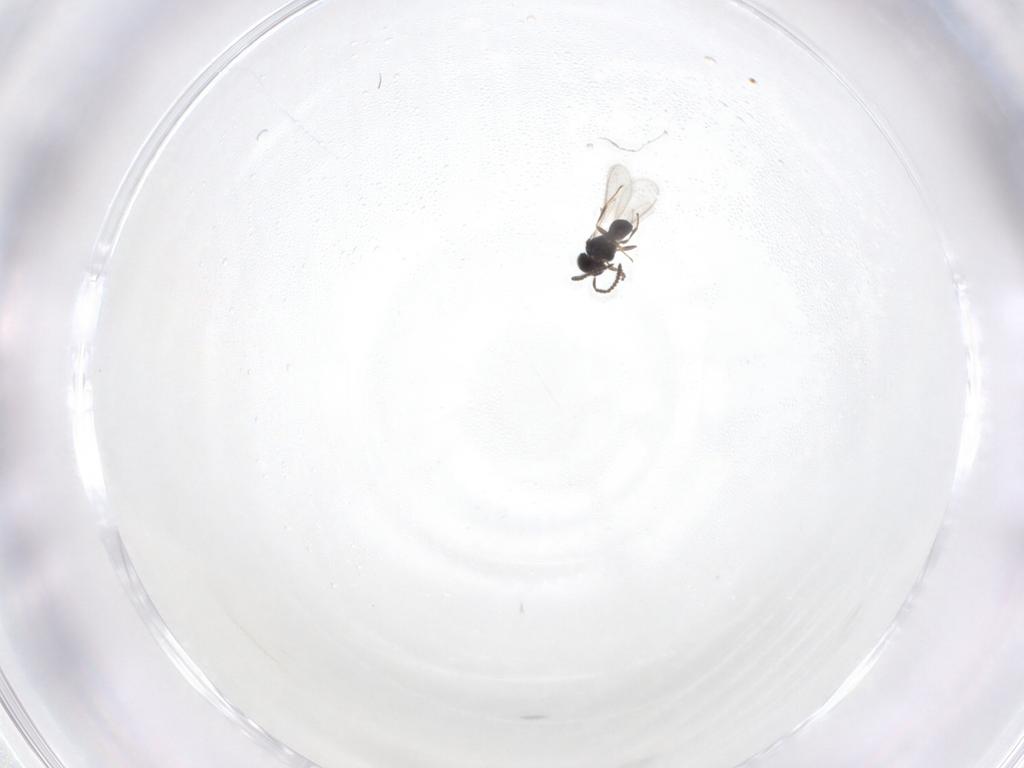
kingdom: Animalia
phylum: Arthropoda
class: Insecta
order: Hymenoptera
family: Scelionidae
